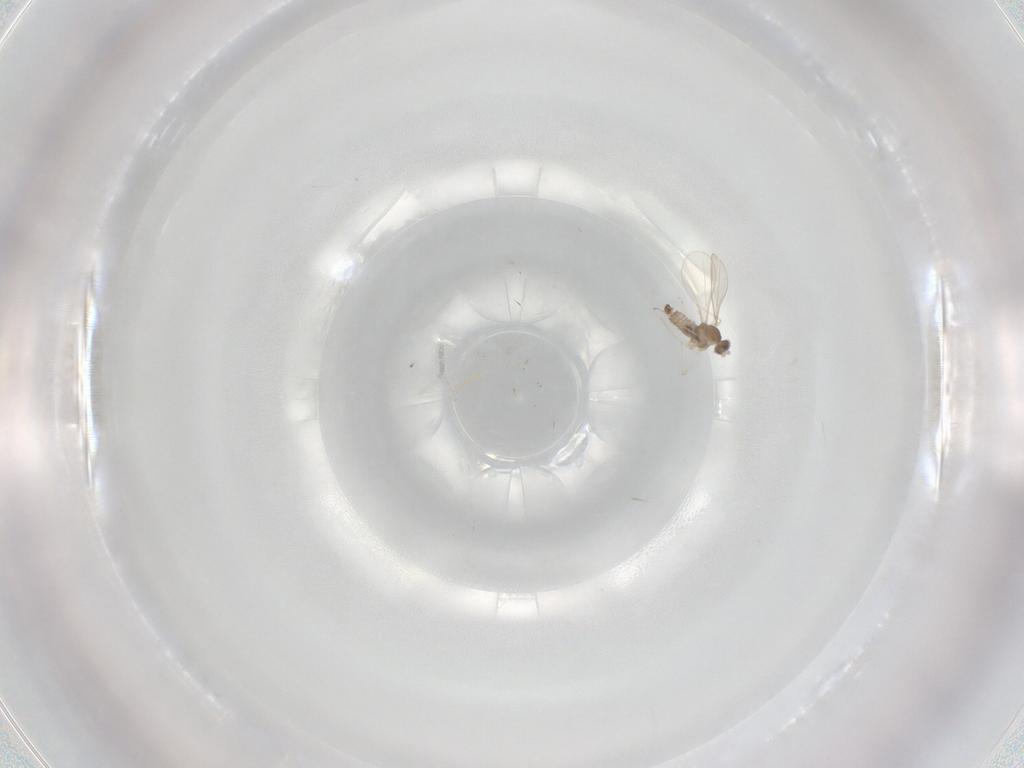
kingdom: Animalia
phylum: Arthropoda
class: Insecta
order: Diptera
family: Cecidomyiidae
